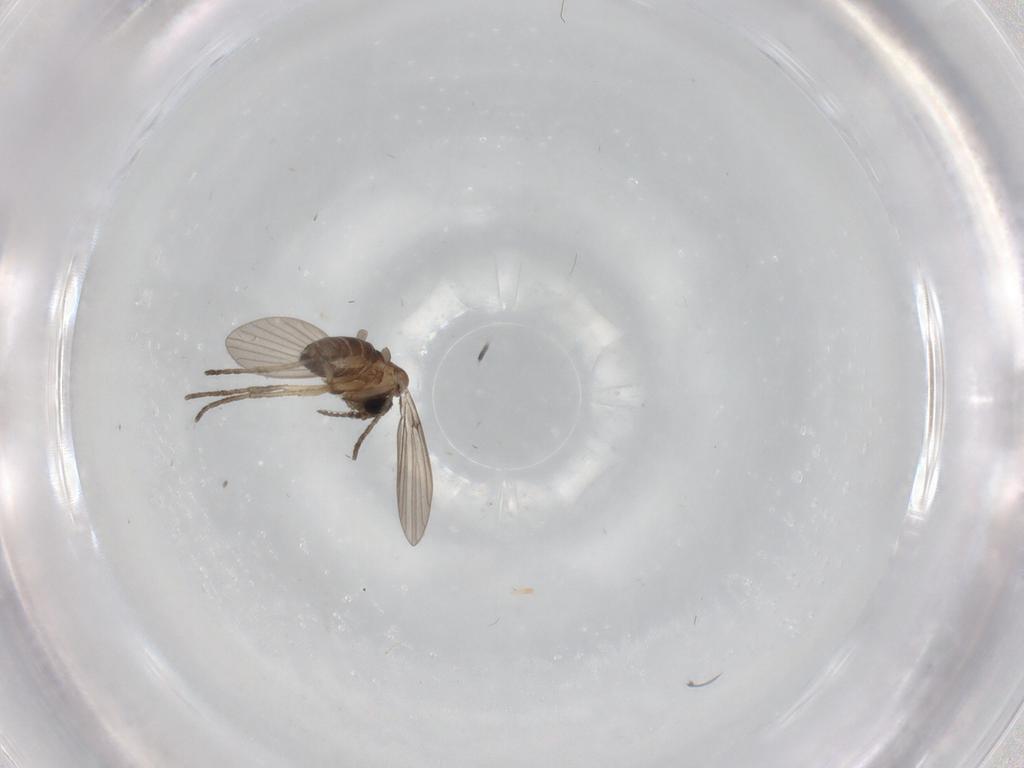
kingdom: Animalia
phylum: Arthropoda
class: Insecta
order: Diptera
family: Psychodidae
